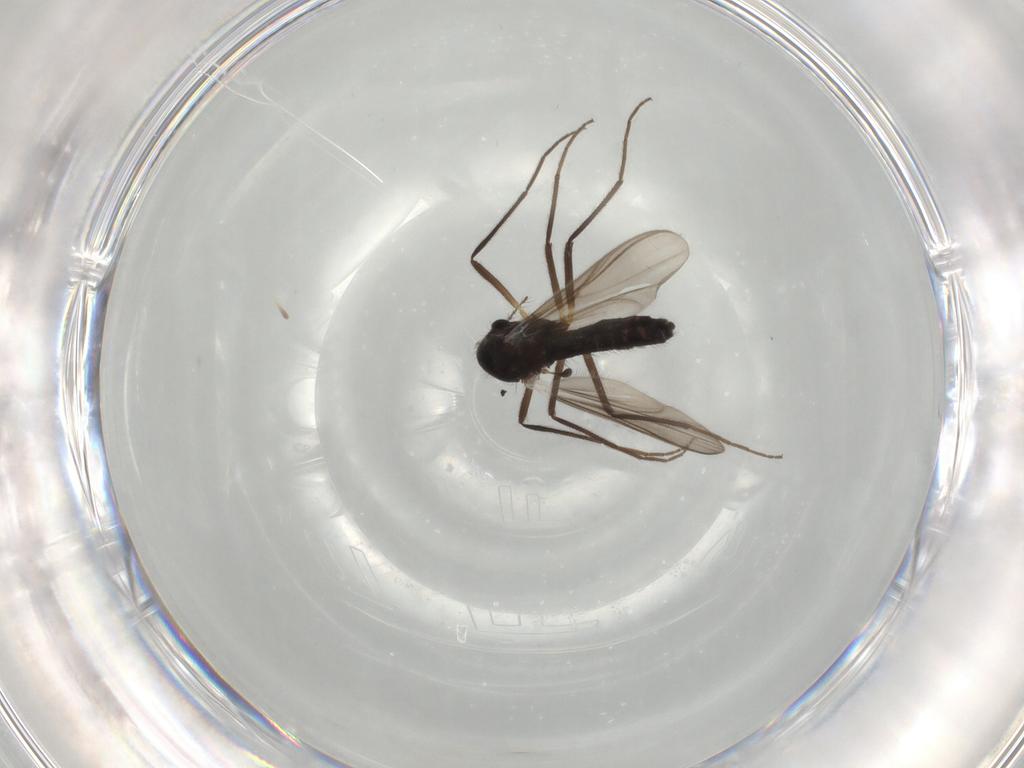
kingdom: Animalia
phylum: Arthropoda
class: Insecta
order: Diptera
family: Chironomidae
